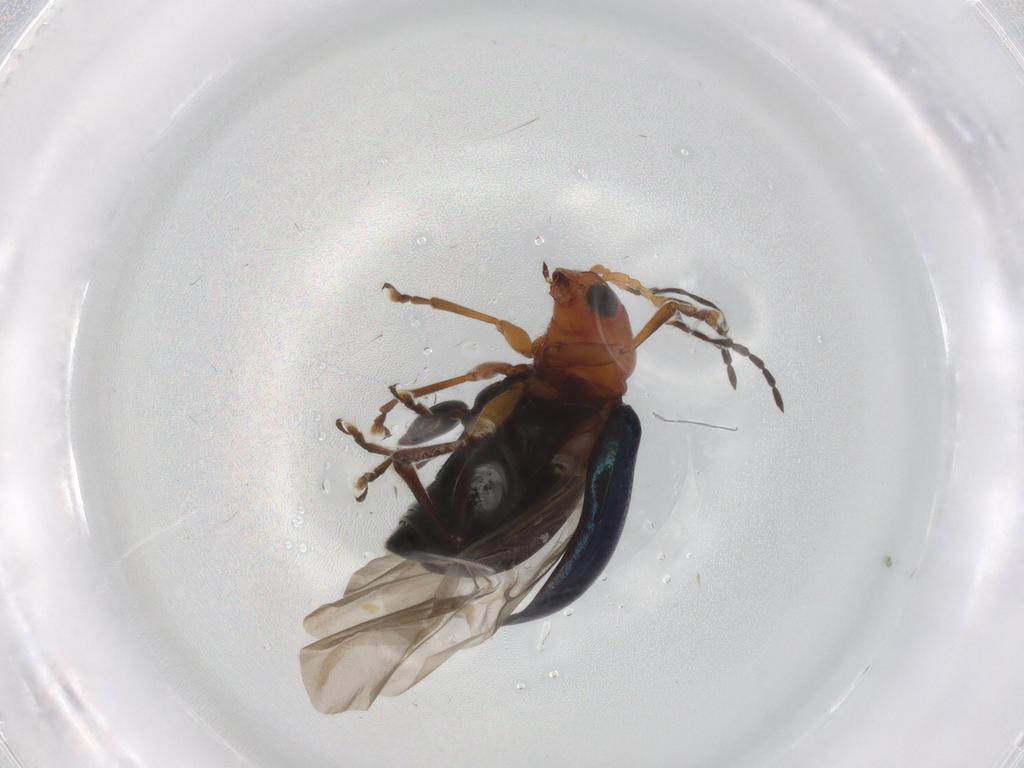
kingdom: Animalia
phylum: Arthropoda
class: Insecta
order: Coleoptera
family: Chrysomelidae
